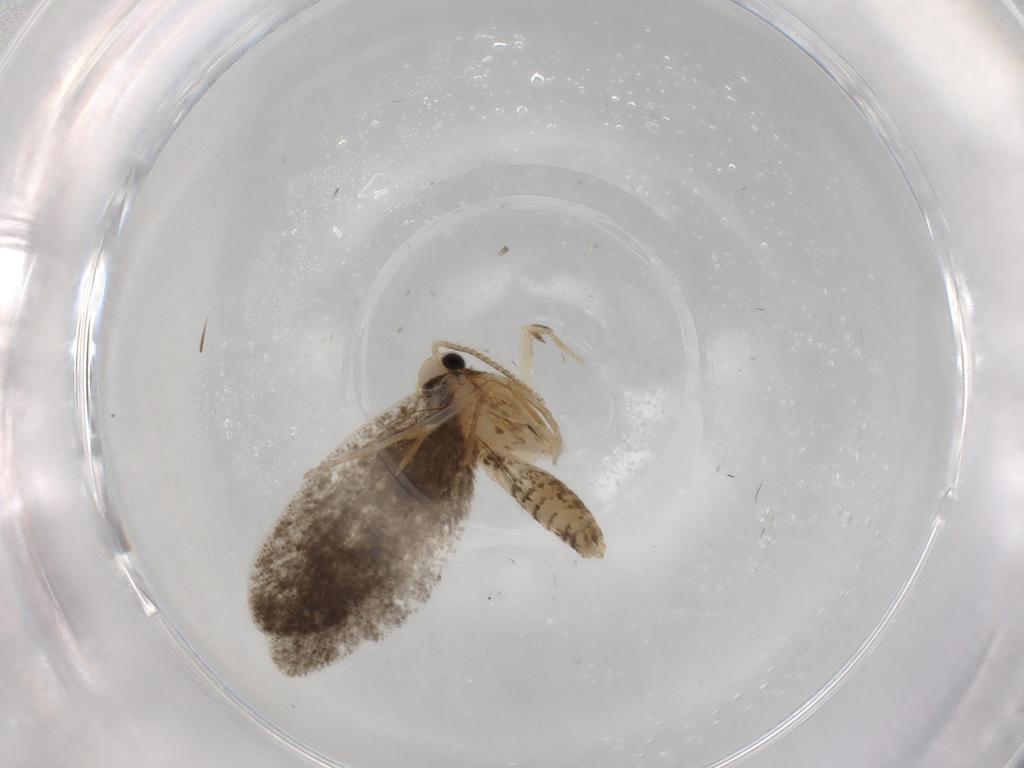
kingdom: Animalia
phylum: Arthropoda
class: Insecta
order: Lepidoptera
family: Psychidae
